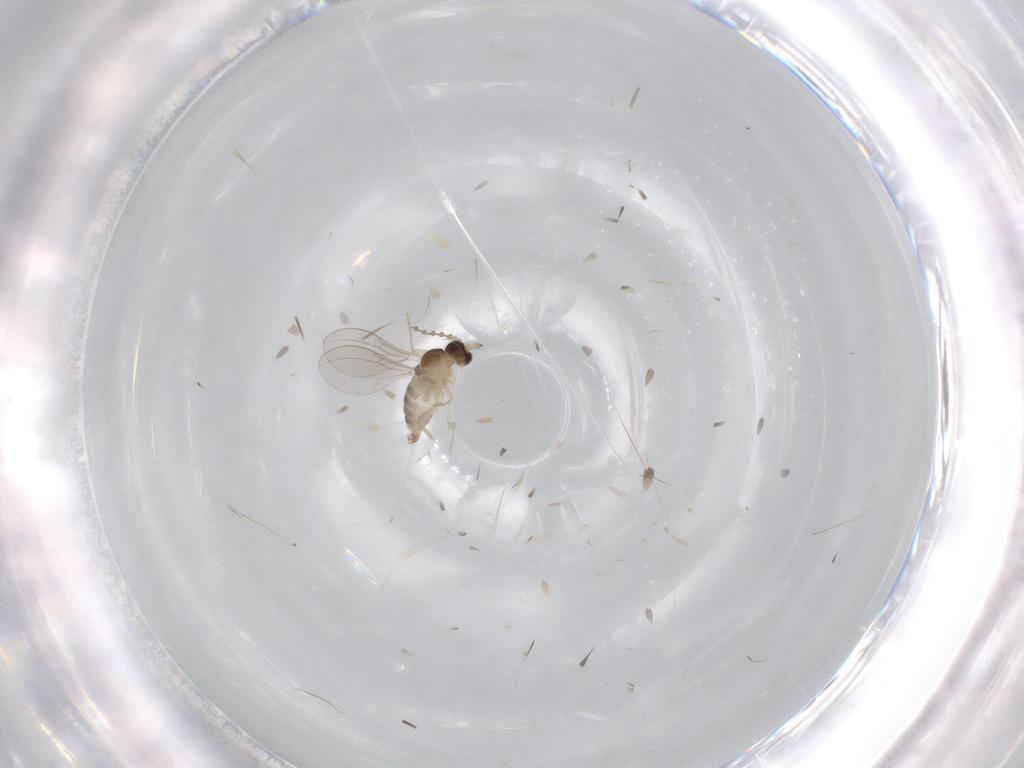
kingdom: Animalia
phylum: Arthropoda
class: Insecta
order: Diptera
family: Cecidomyiidae
